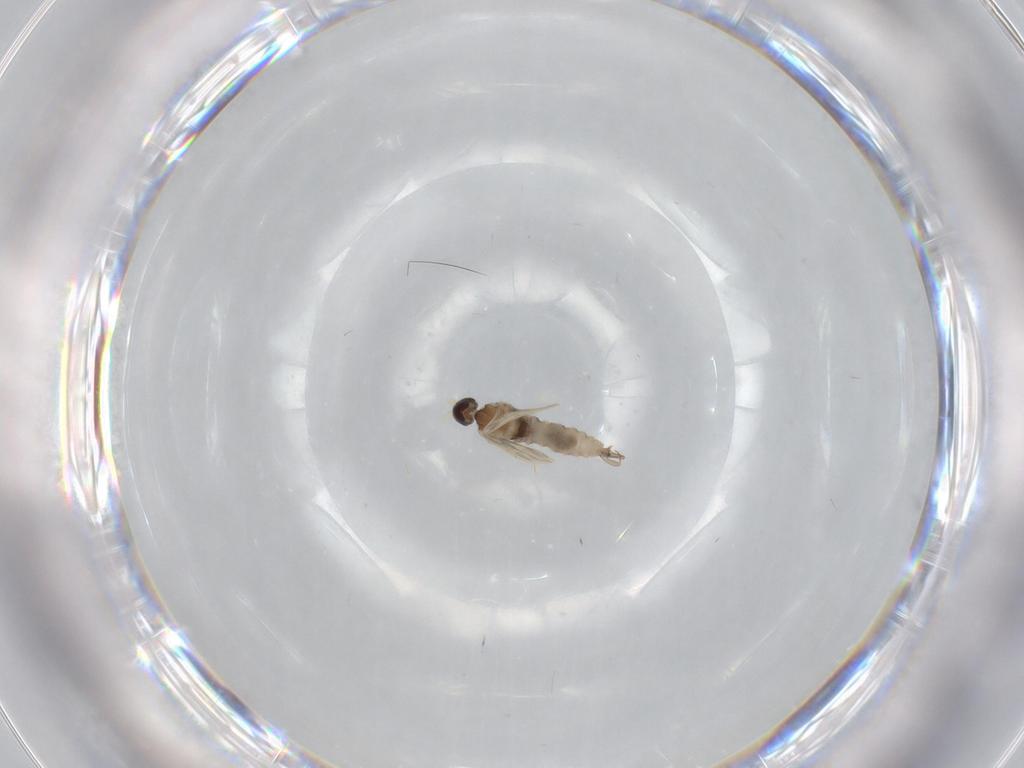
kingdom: Animalia
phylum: Arthropoda
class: Insecta
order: Diptera
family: Cecidomyiidae
